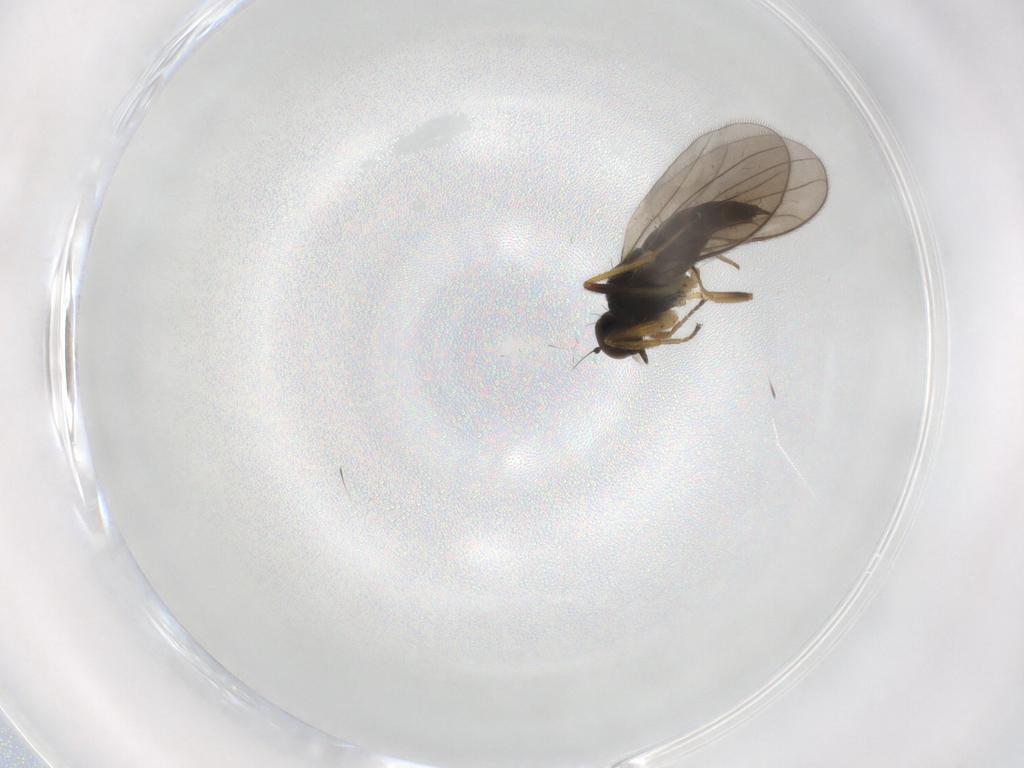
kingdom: Animalia
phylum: Arthropoda
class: Insecta
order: Diptera
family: Hybotidae
